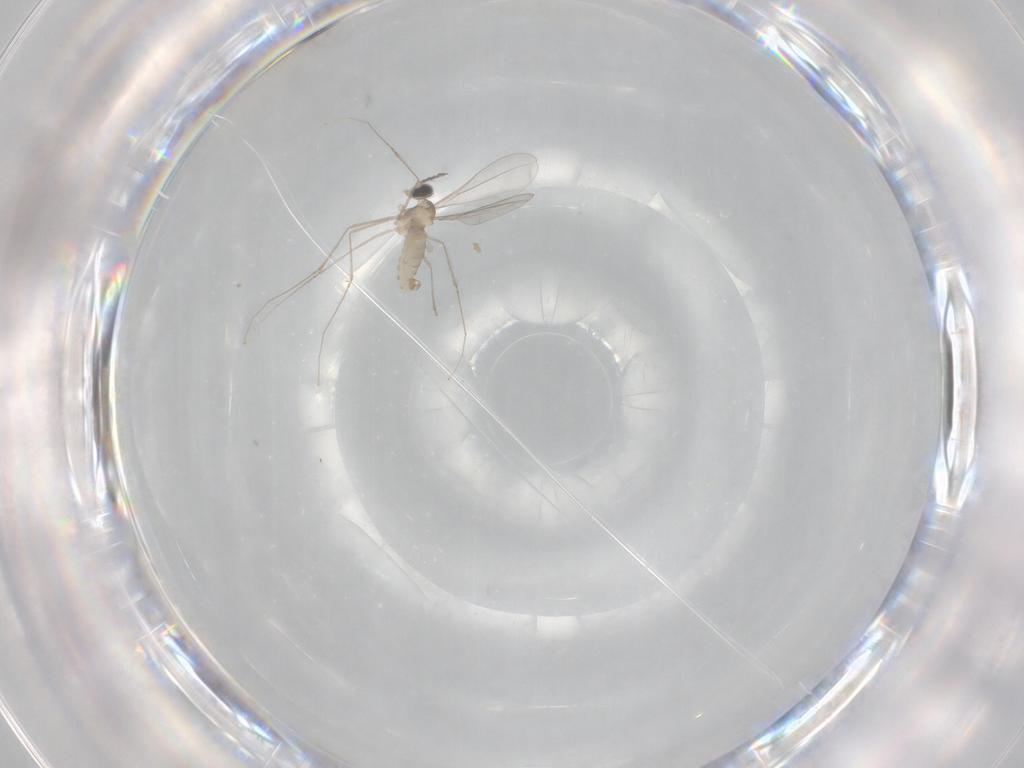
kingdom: Animalia
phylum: Arthropoda
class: Insecta
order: Diptera
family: Cecidomyiidae
